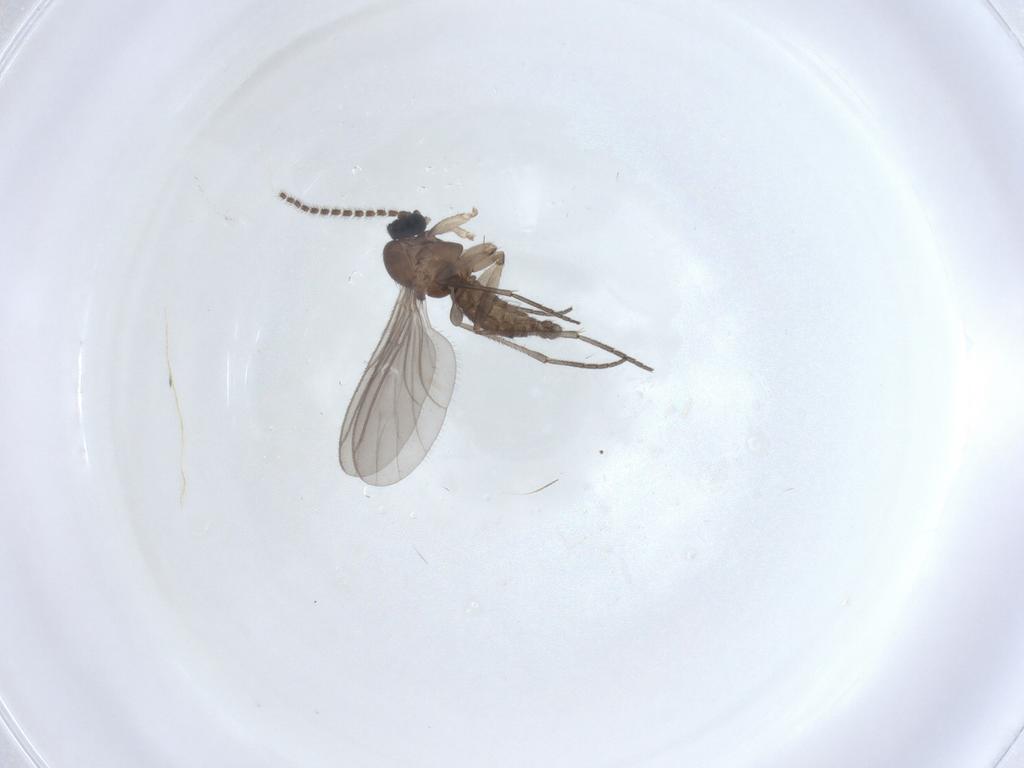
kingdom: Animalia
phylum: Arthropoda
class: Insecta
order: Diptera
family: Sciaridae
